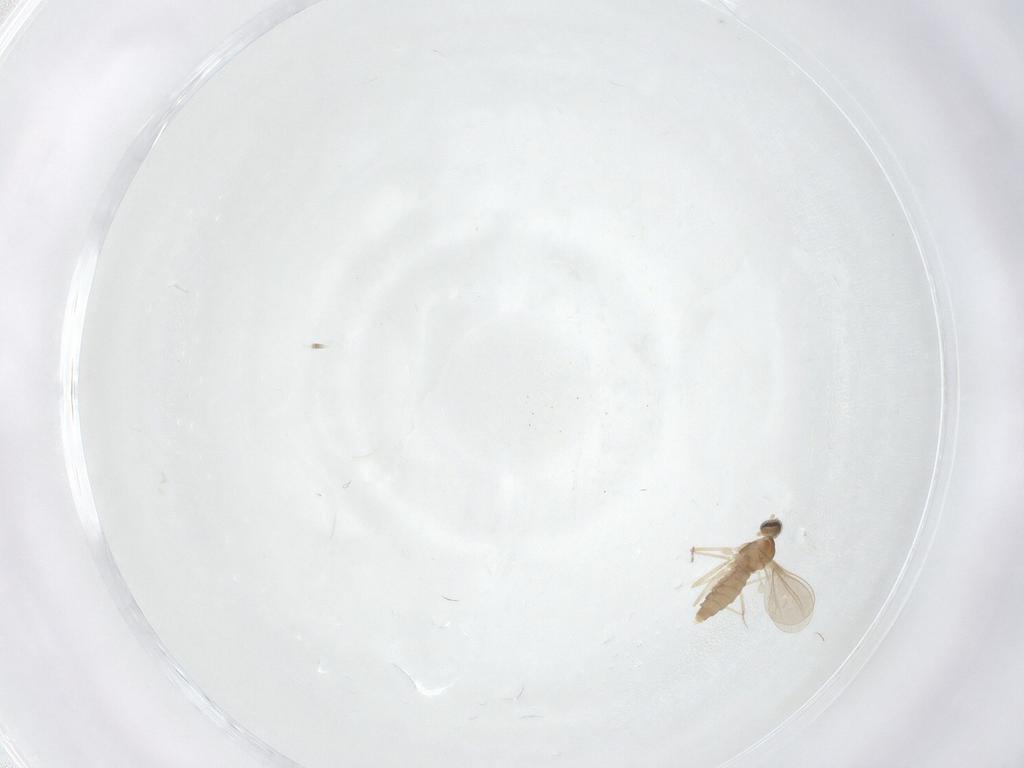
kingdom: Animalia
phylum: Arthropoda
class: Insecta
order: Diptera
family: Cecidomyiidae
